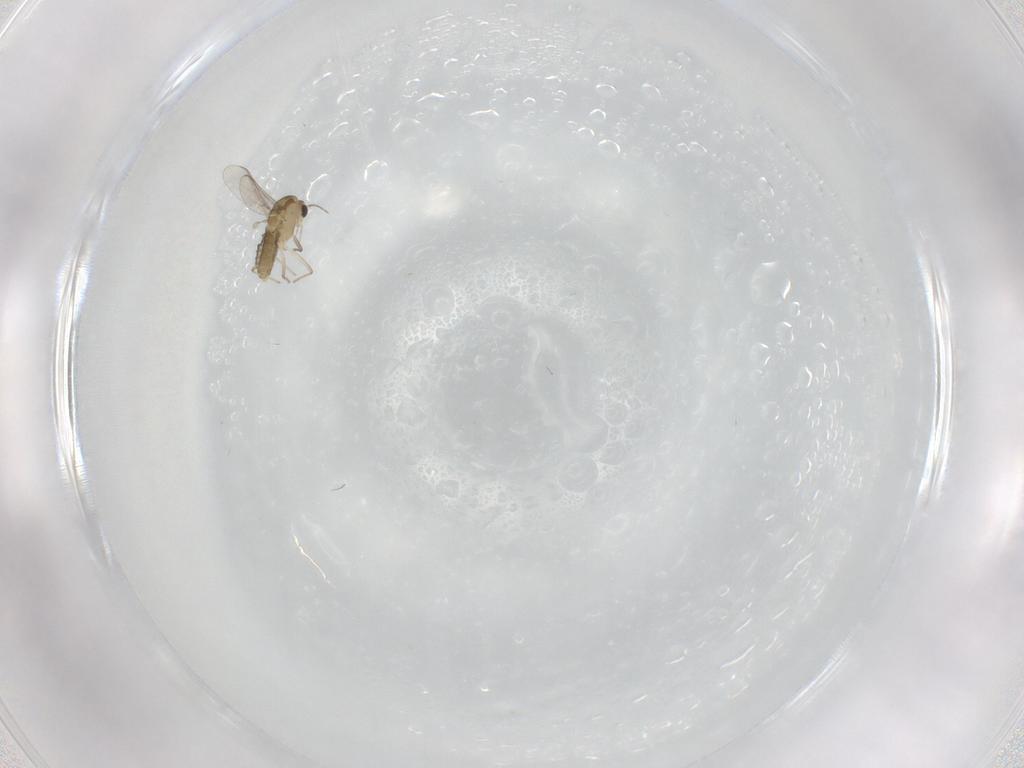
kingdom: Animalia
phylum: Arthropoda
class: Insecta
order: Diptera
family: Chironomidae
